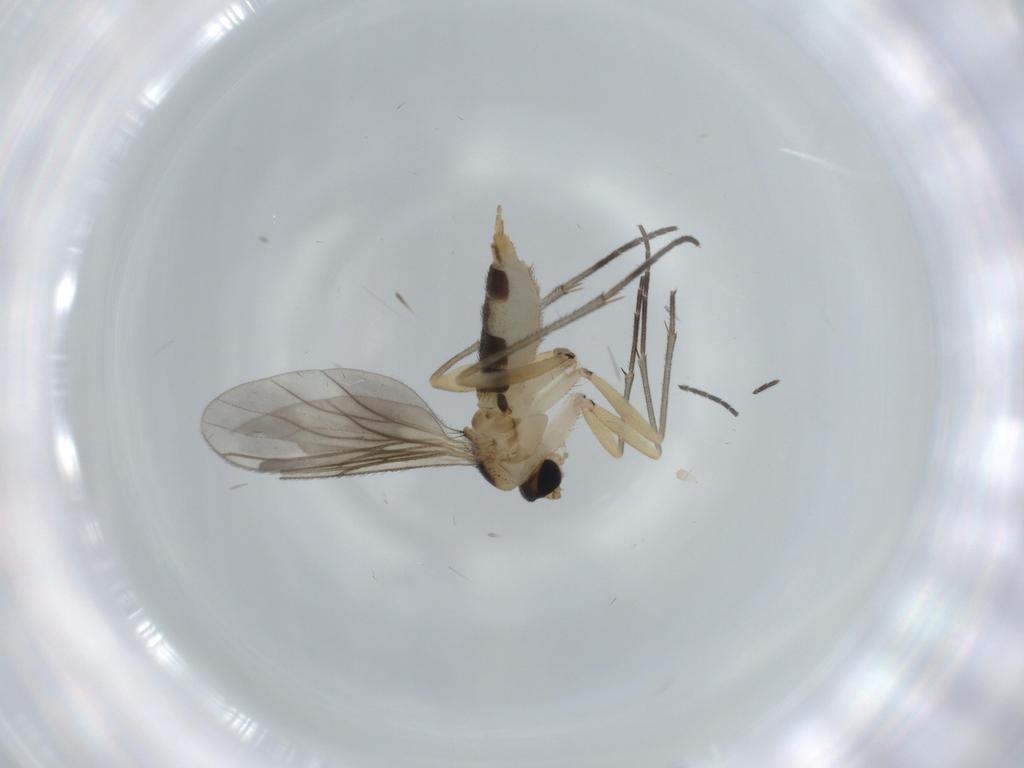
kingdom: Animalia
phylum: Arthropoda
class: Insecta
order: Diptera
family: Sciaridae
